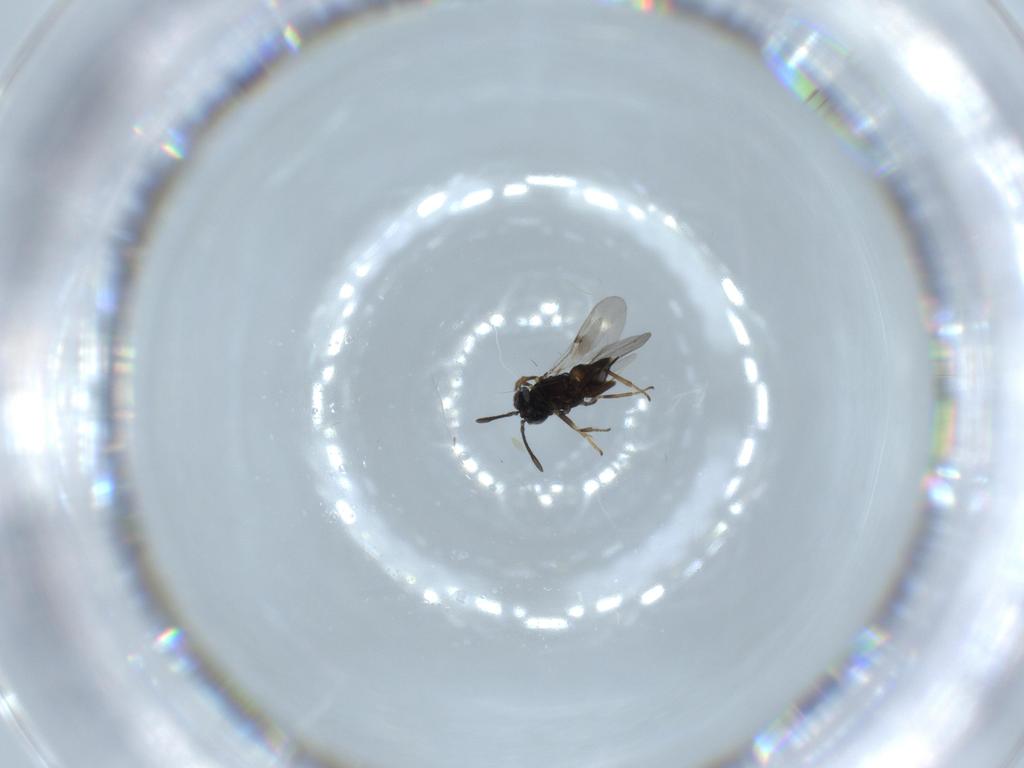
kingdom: Animalia
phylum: Arthropoda
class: Insecta
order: Hymenoptera
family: Encyrtidae
